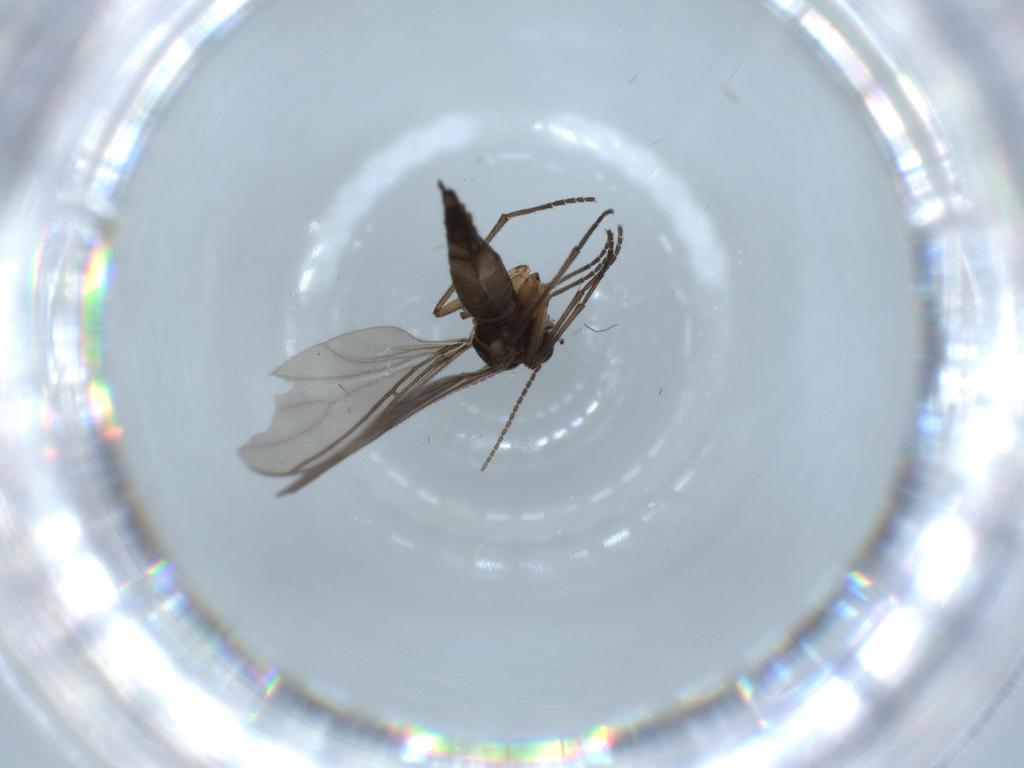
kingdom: Animalia
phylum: Arthropoda
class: Insecta
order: Diptera
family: Sciaridae
